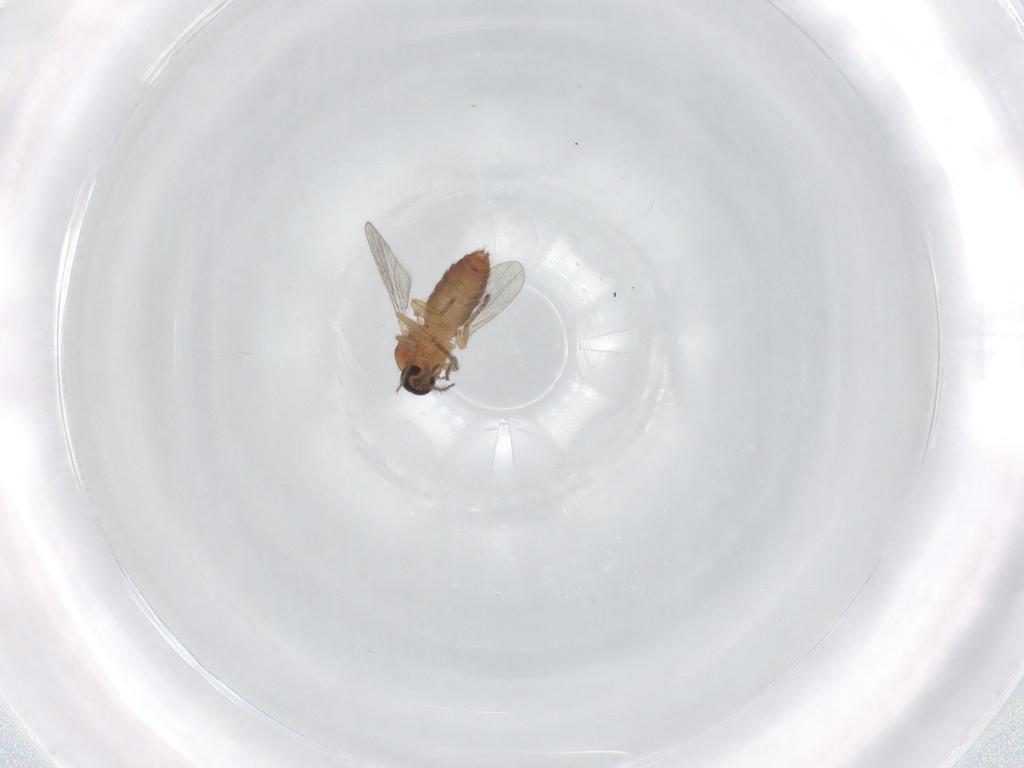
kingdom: Animalia
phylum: Arthropoda
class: Insecta
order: Diptera
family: Ceratopogonidae
